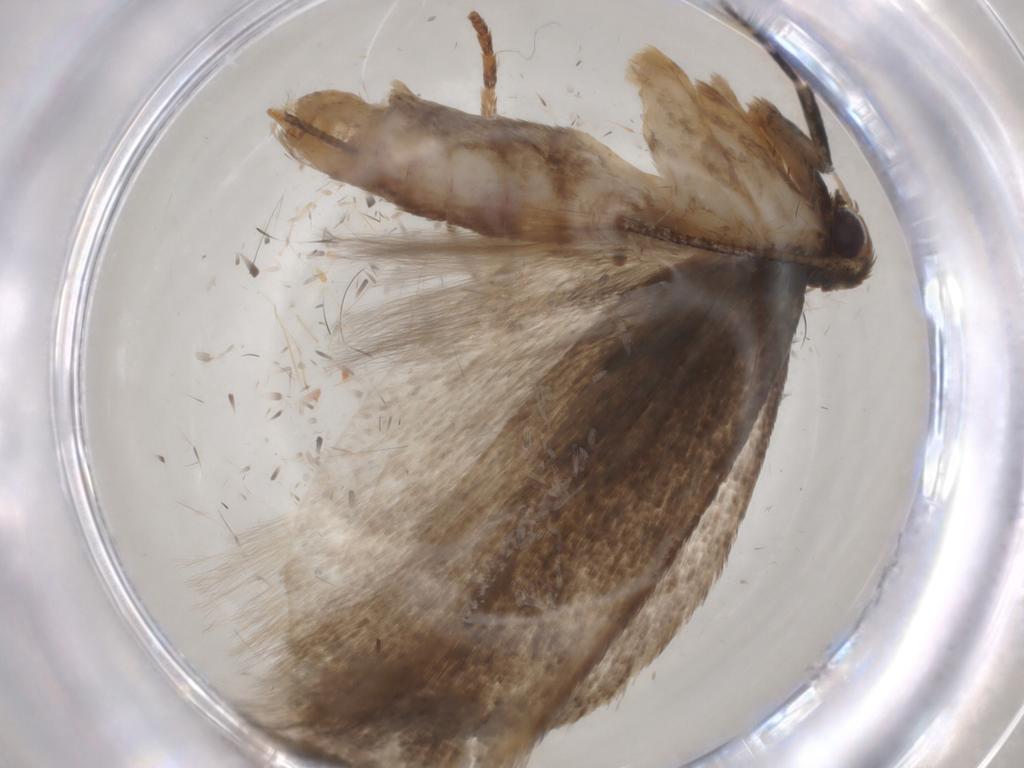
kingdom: Animalia
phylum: Arthropoda
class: Insecta
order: Lepidoptera
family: Gelechiidae
